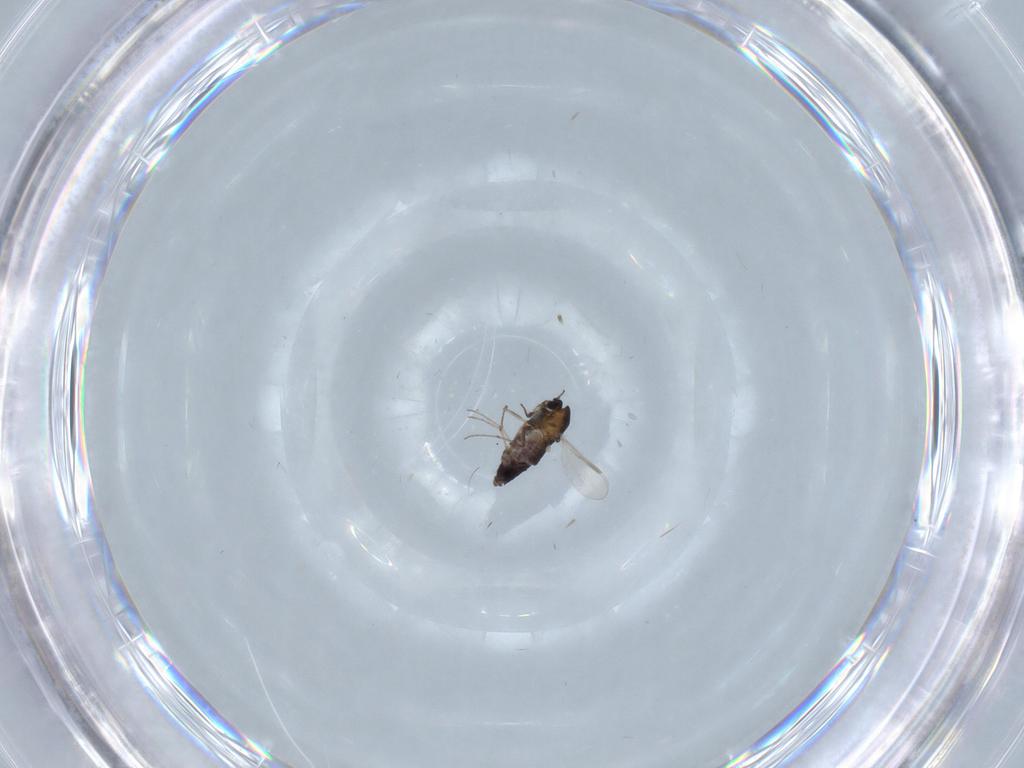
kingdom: Animalia
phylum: Arthropoda
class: Insecta
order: Diptera
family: Chironomidae
